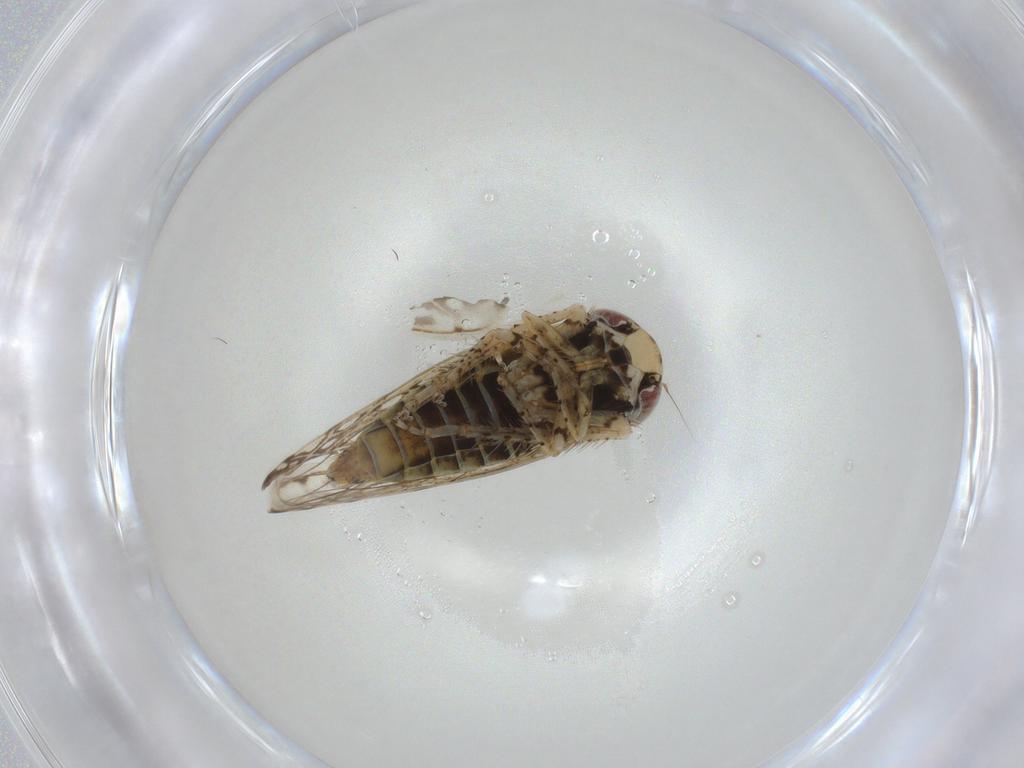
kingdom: Animalia
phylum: Arthropoda
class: Insecta
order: Hemiptera
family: Cicadellidae
